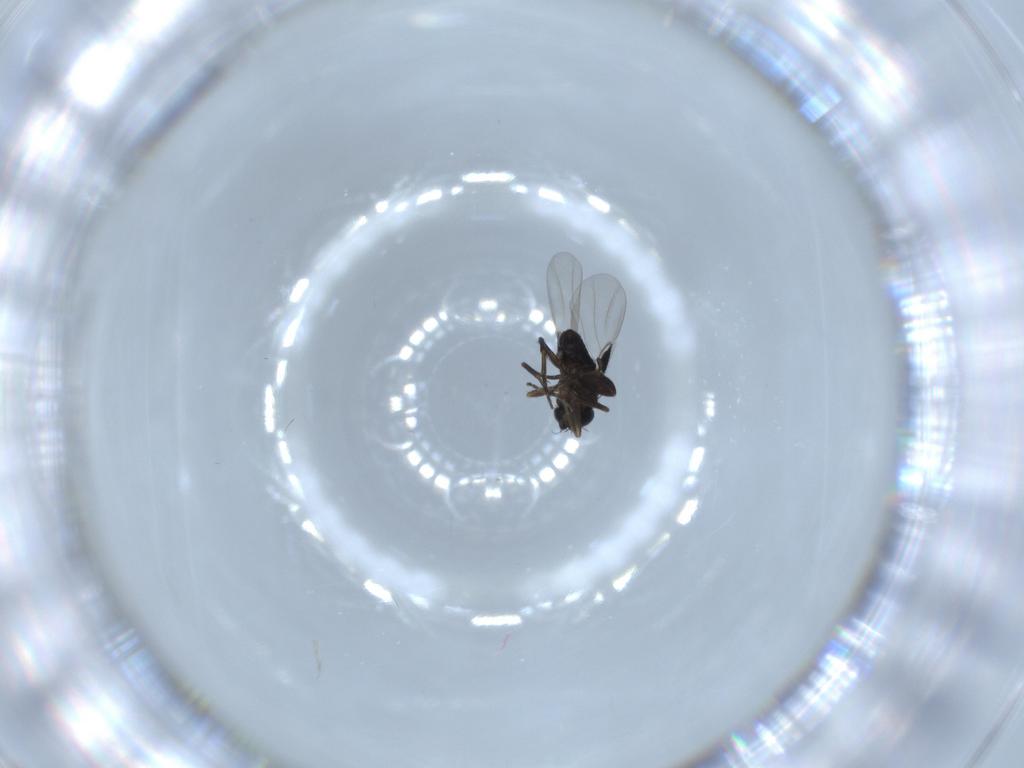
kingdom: Animalia
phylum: Arthropoda
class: Insecta
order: Diptera
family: Phoridae
